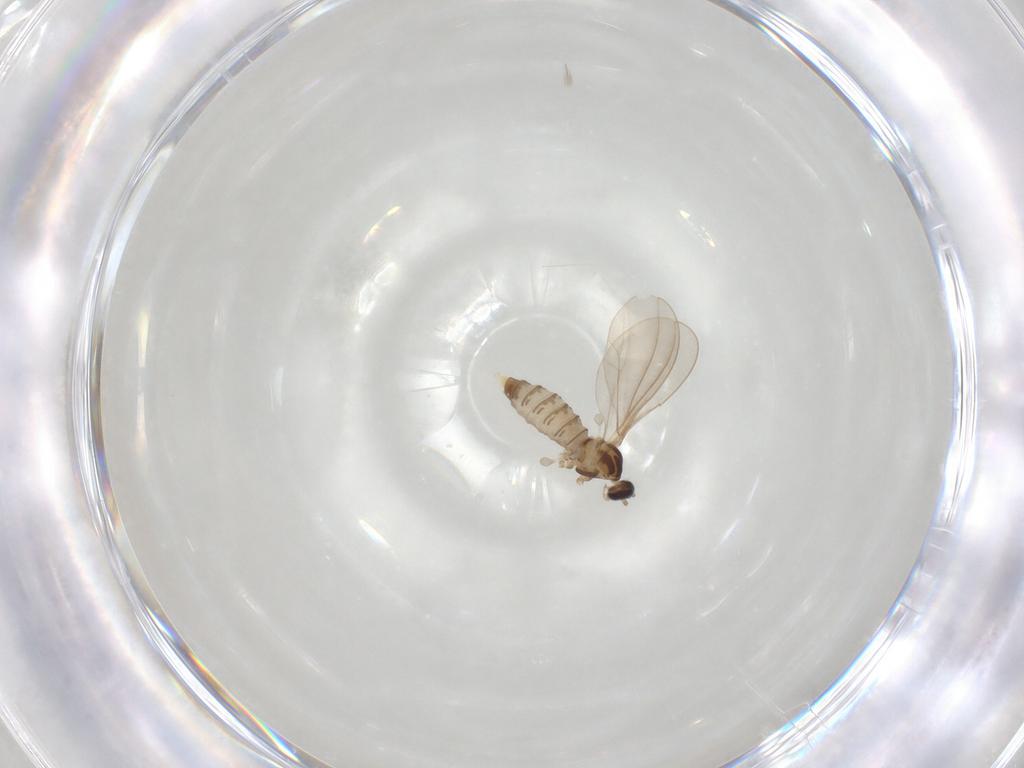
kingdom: Animalia
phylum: Arthropoda
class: Insecta
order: Diptera
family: Cecidomyiidae
